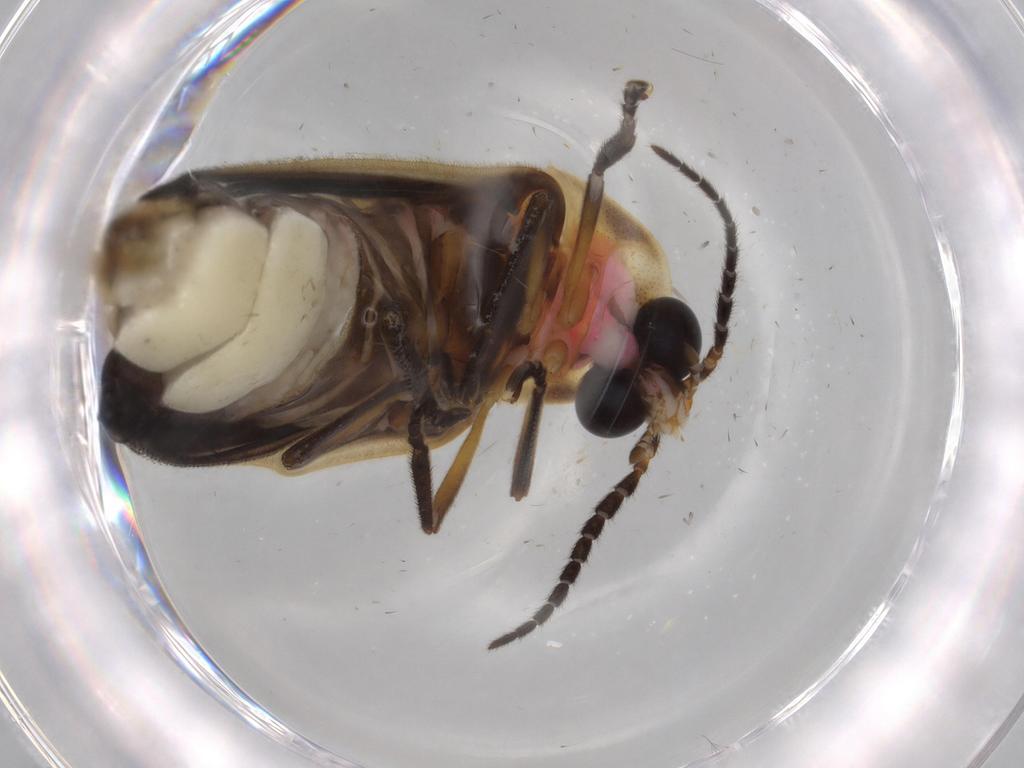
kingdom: Animalia
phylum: Arthropoda
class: Insecta
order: Coleoptera
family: Lampyridae
